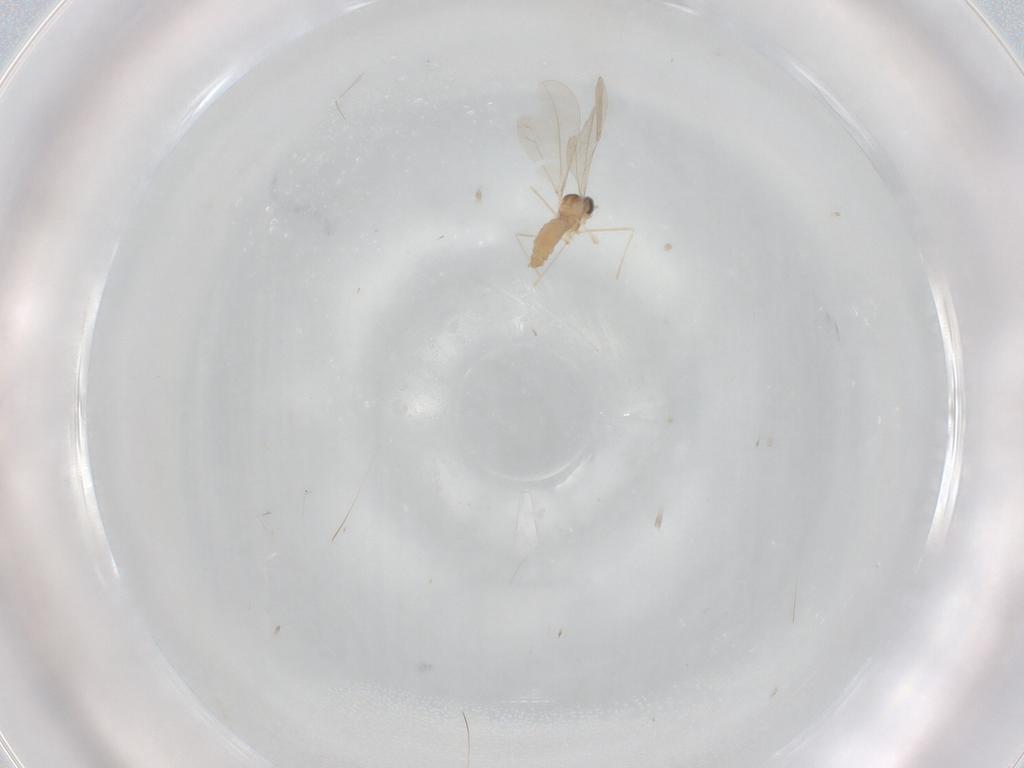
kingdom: Animalia
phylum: Arthropoda
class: Insecta
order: Diptera
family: Cecidomyiidae
